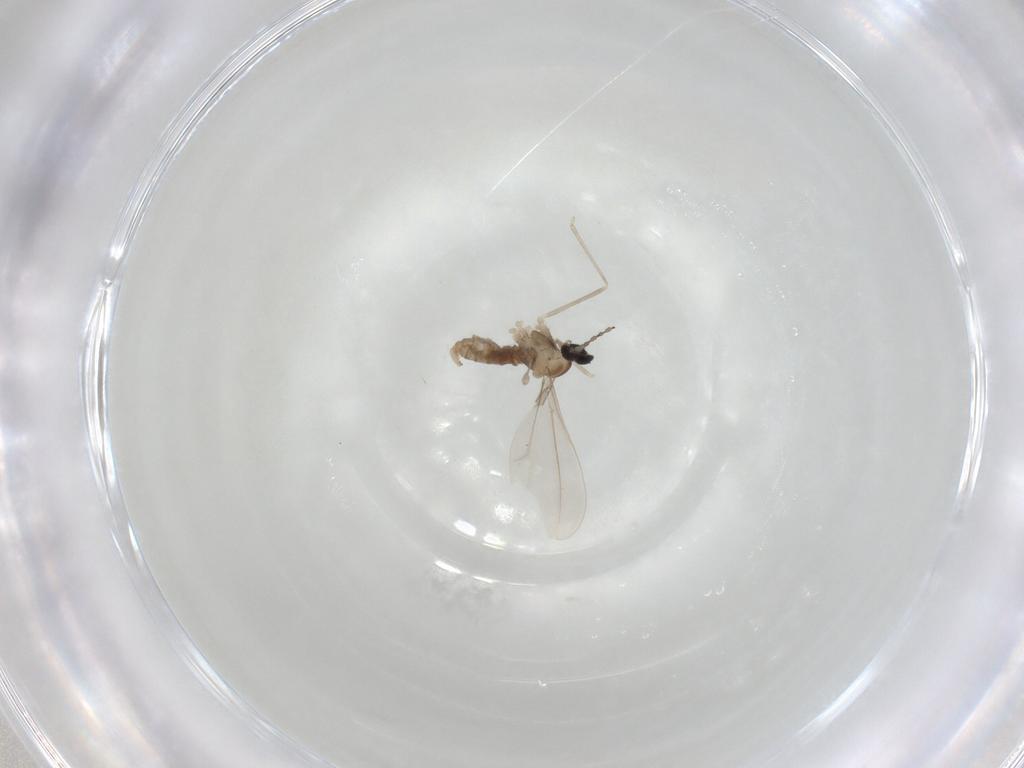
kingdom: Animalia
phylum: Arthropoda
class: Insecta
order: Diptera
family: Cecidomyiidae
